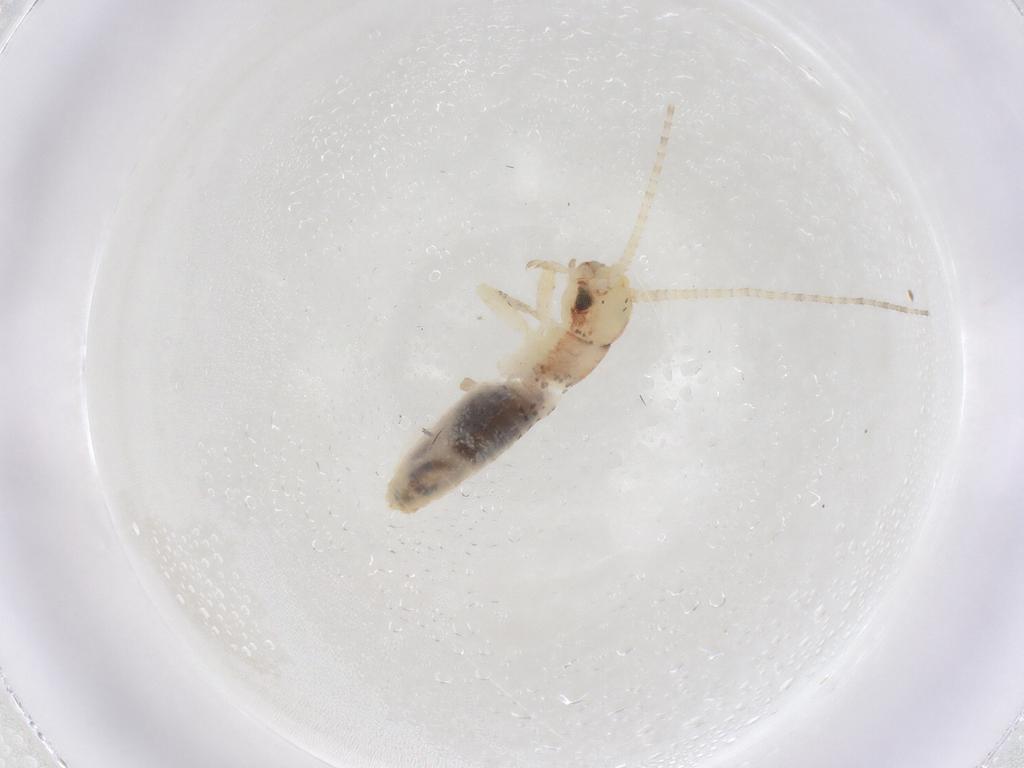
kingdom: Animalia
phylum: Arthropoda
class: Insecta
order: Orthoptera
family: Gryllidae
